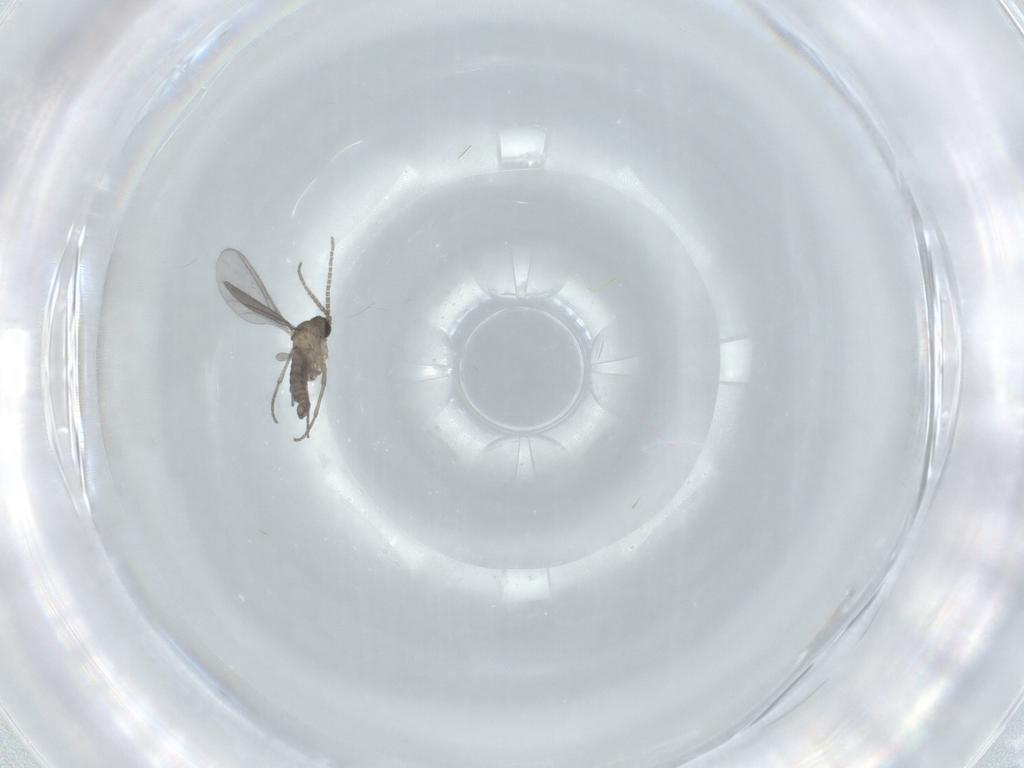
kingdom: Animalia
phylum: Arthropoda
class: Insecta
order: Diptera
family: Sciaridae
